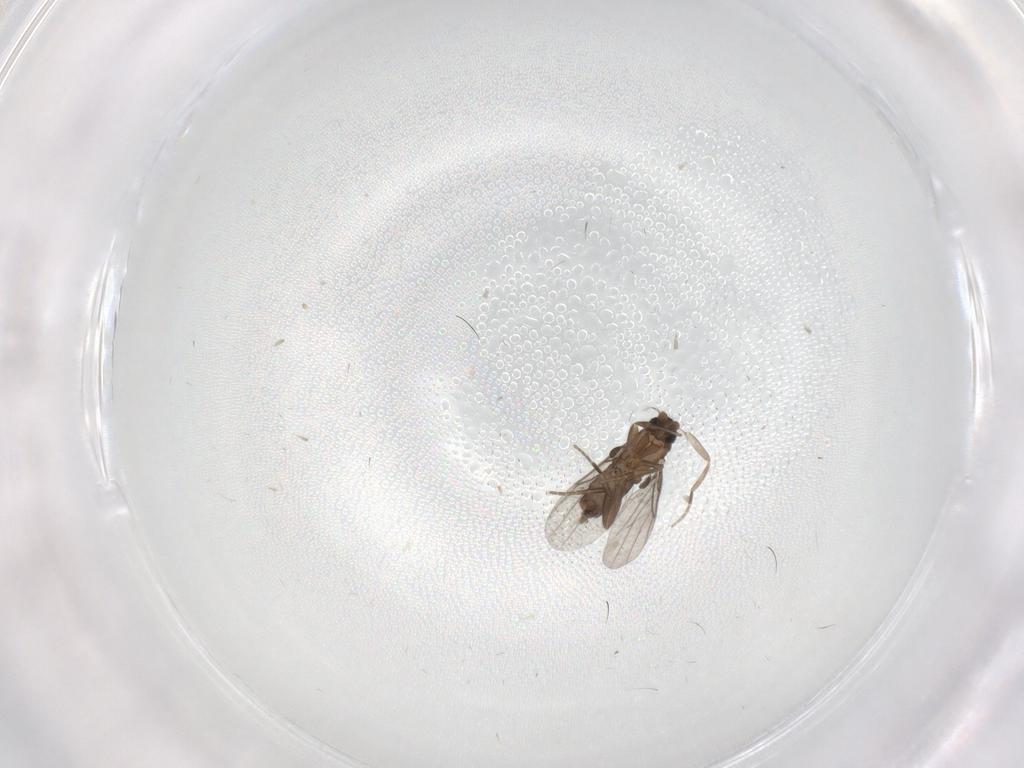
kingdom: Animalia
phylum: Arthropoda
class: Insecta
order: Diptera
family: Phoridae
